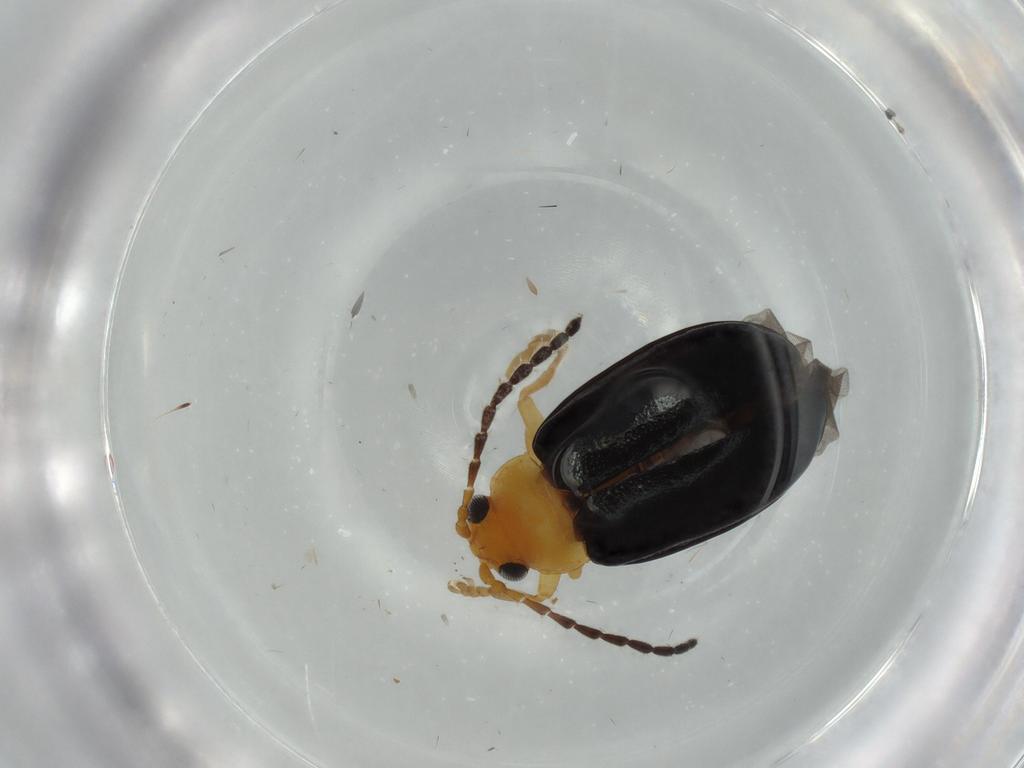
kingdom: Animalia
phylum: Arthropoda
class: Insecta
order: Coleoptera
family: Chrysomelidae
